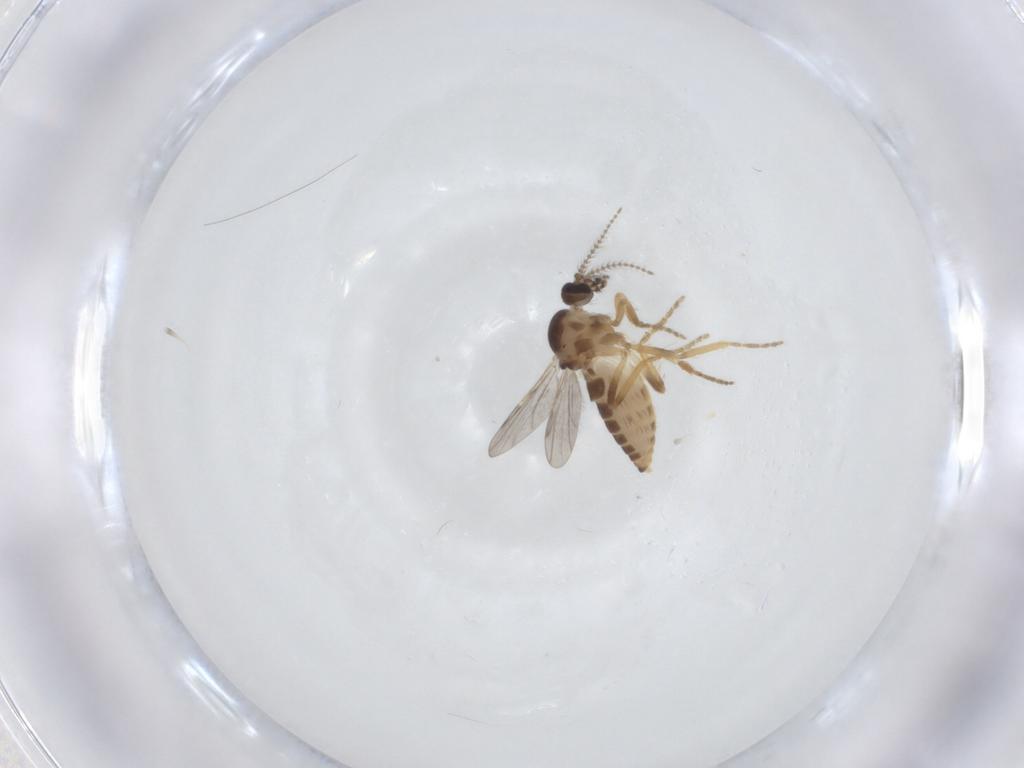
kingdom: Animalia
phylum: Arthropoda
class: Insecta
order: Diptera
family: Ceratopogonidae
